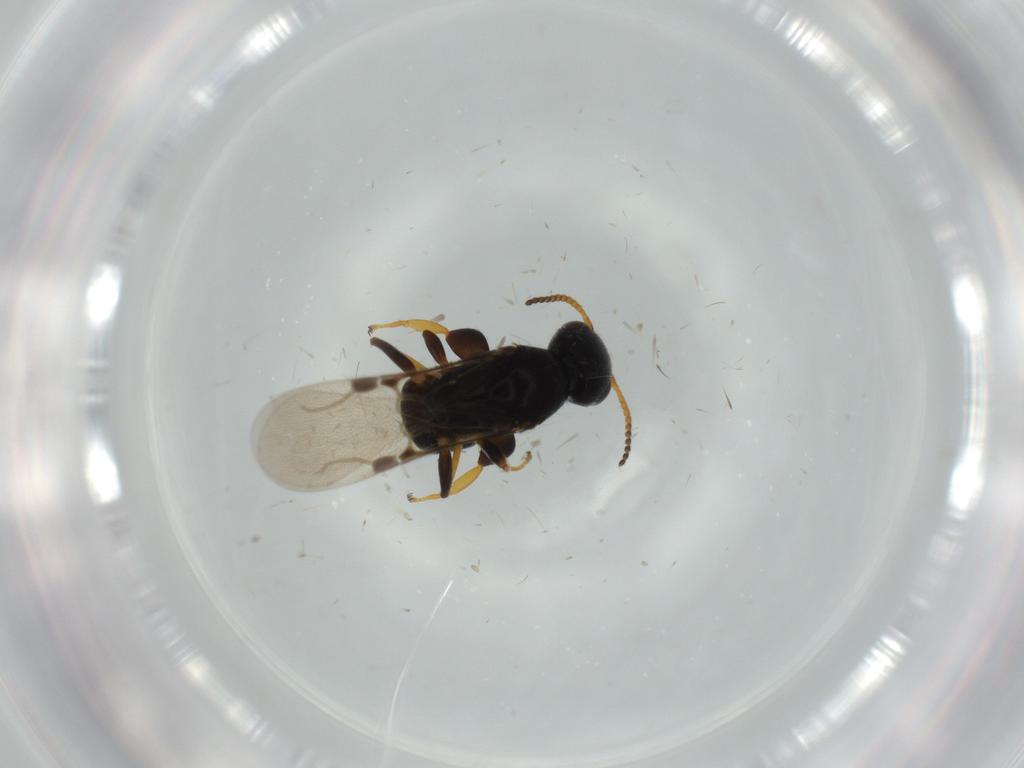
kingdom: Animalia
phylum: Arthropoda
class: Insecta
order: Hymenoptera
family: Bethylidae
